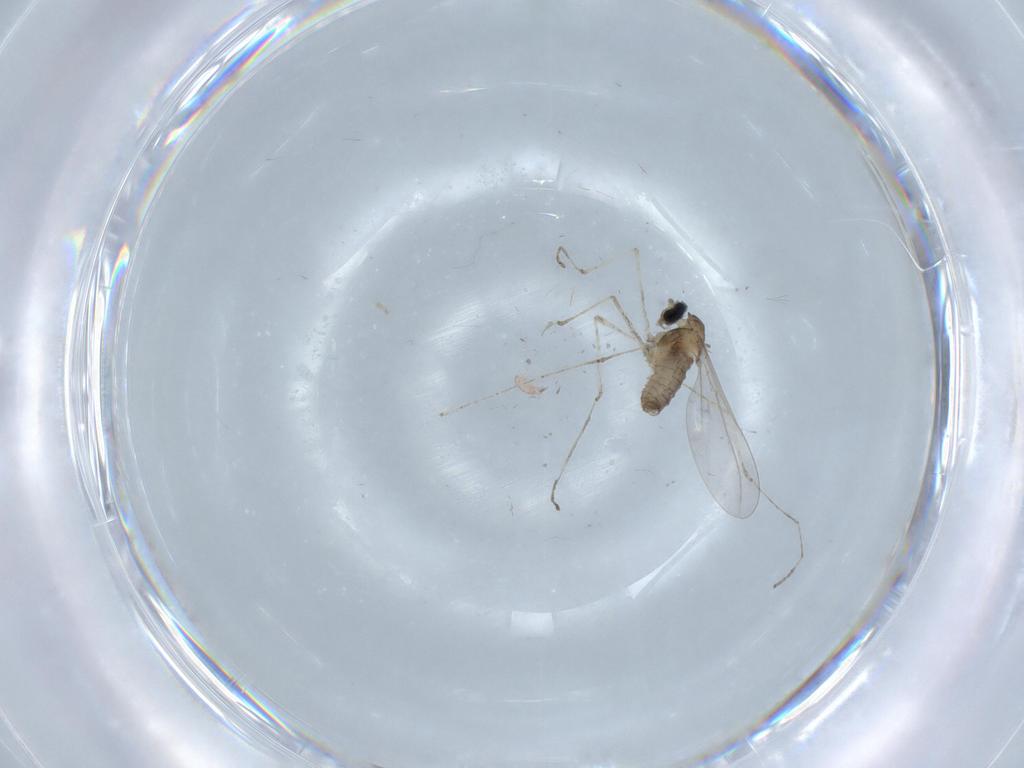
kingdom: Animalia
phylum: Arthropoda
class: Insecta
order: Diptera
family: Cecidomyiidae
